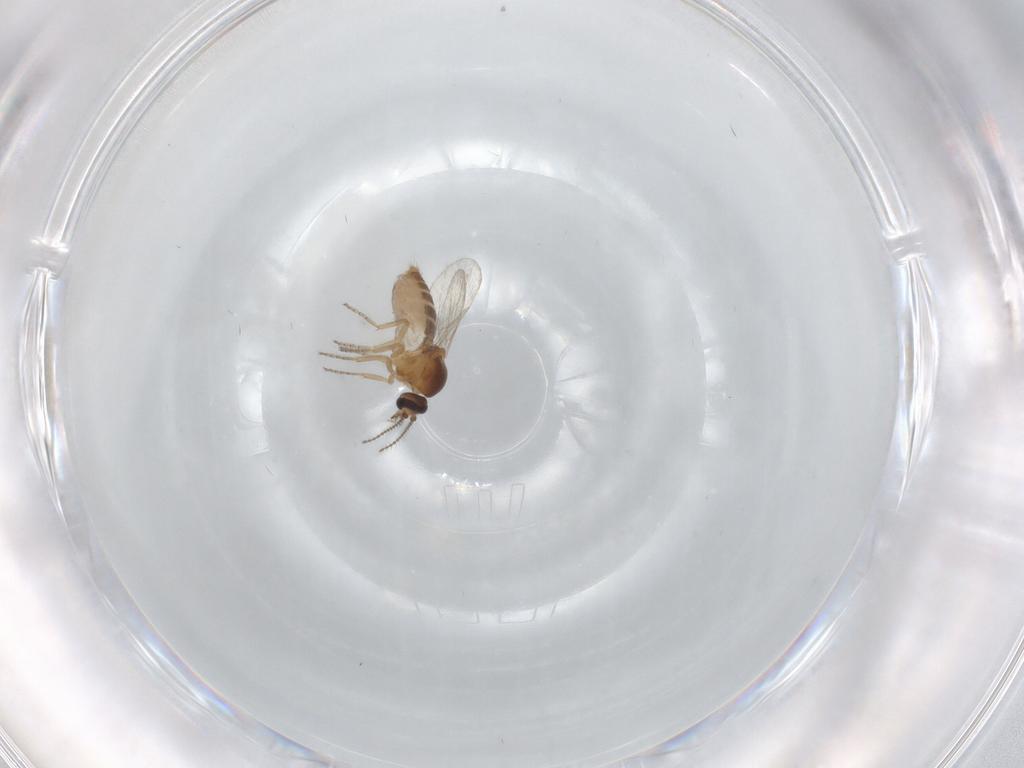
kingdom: Animalia
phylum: Arthropoda
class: Insecta
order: Diptera
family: Ceratopogonidae
